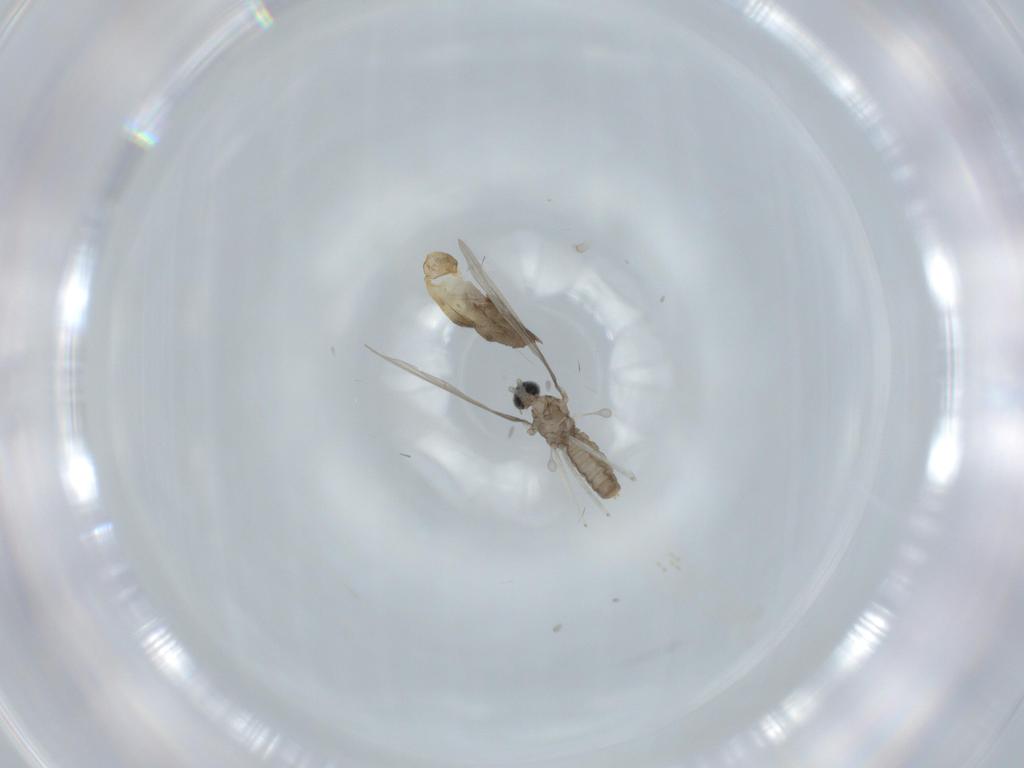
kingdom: Animalia
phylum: Arthropoda
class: Insecta
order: Diptera
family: Cecidomyiidae
